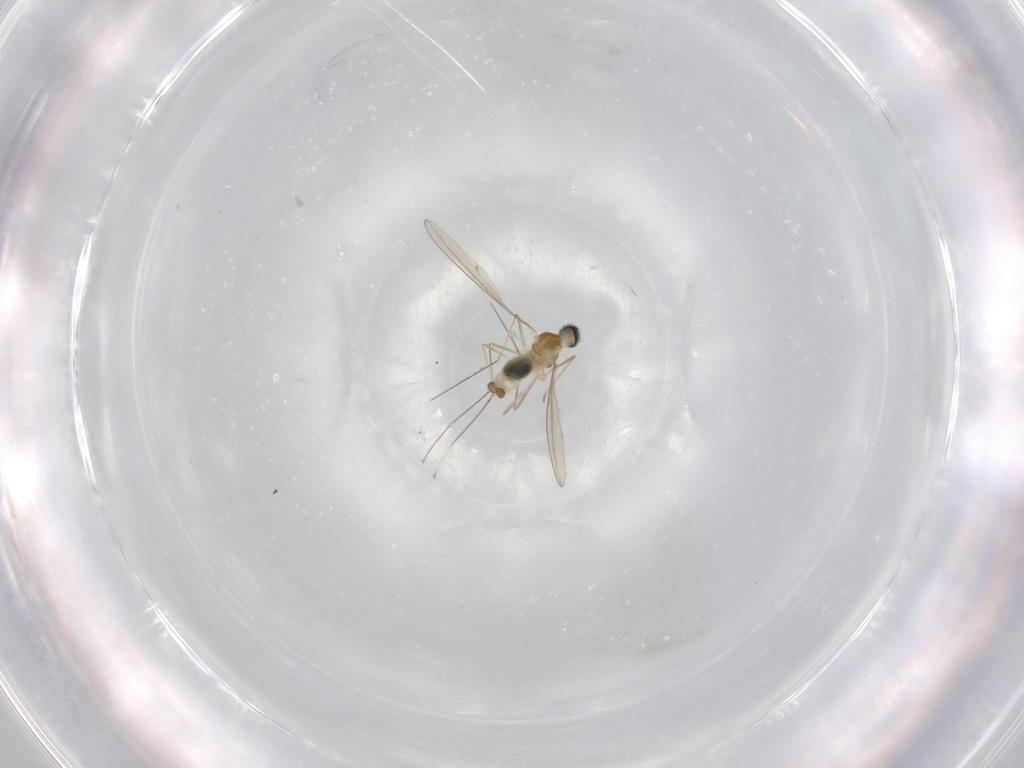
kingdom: Animalia
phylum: Arthropoda
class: Insecta
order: Diptera
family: Cecidomyiidae
